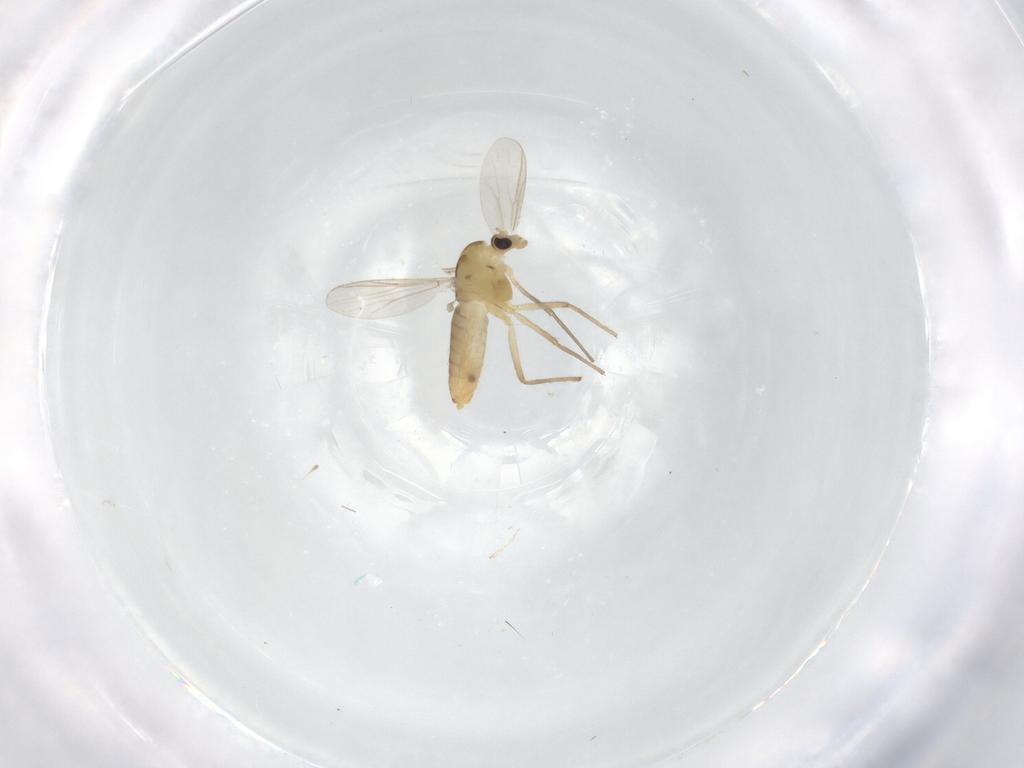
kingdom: Animalia
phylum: Arthropoda
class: Insecta
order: Diptera
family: Chironomidae
